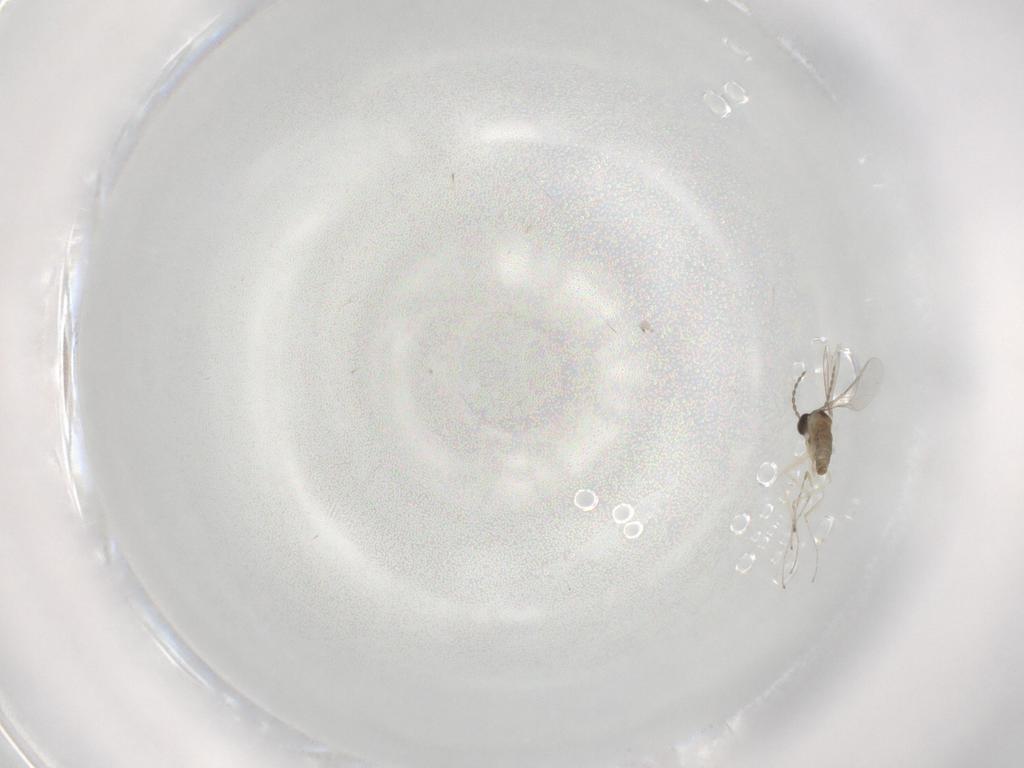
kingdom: Animalia
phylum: Arthropoda
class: Insecta
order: Diptera
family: Cecidomyiidae
